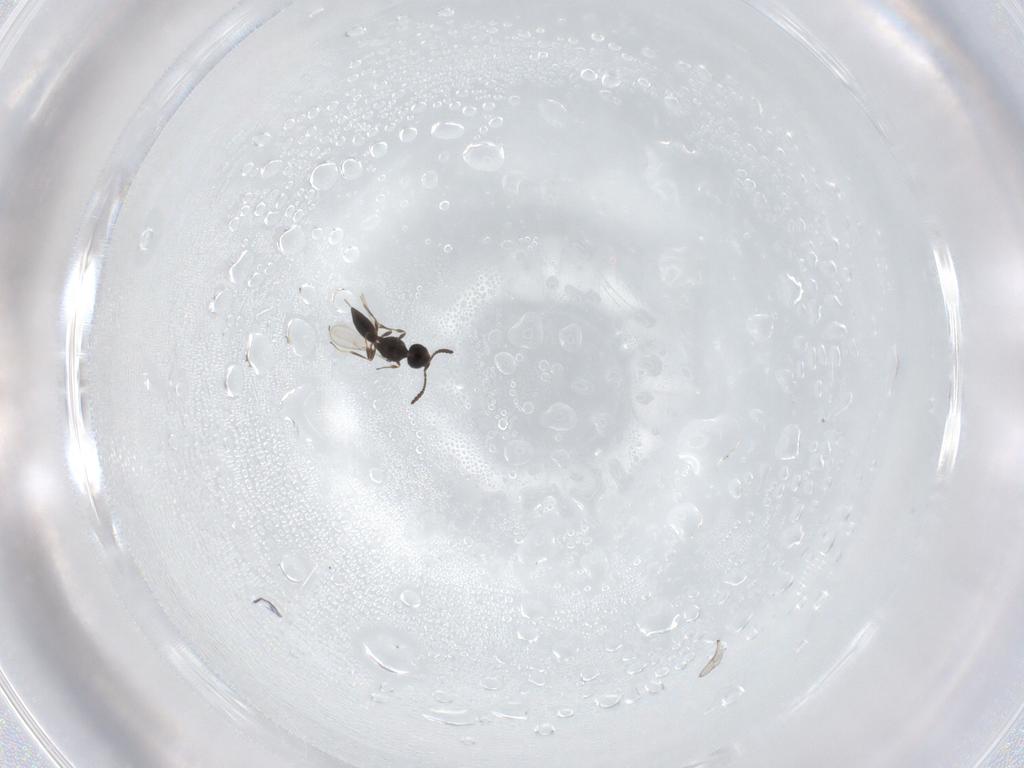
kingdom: Animalia
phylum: Arthropoda
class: Insecta
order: Hymenoptera
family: Scelionidae
